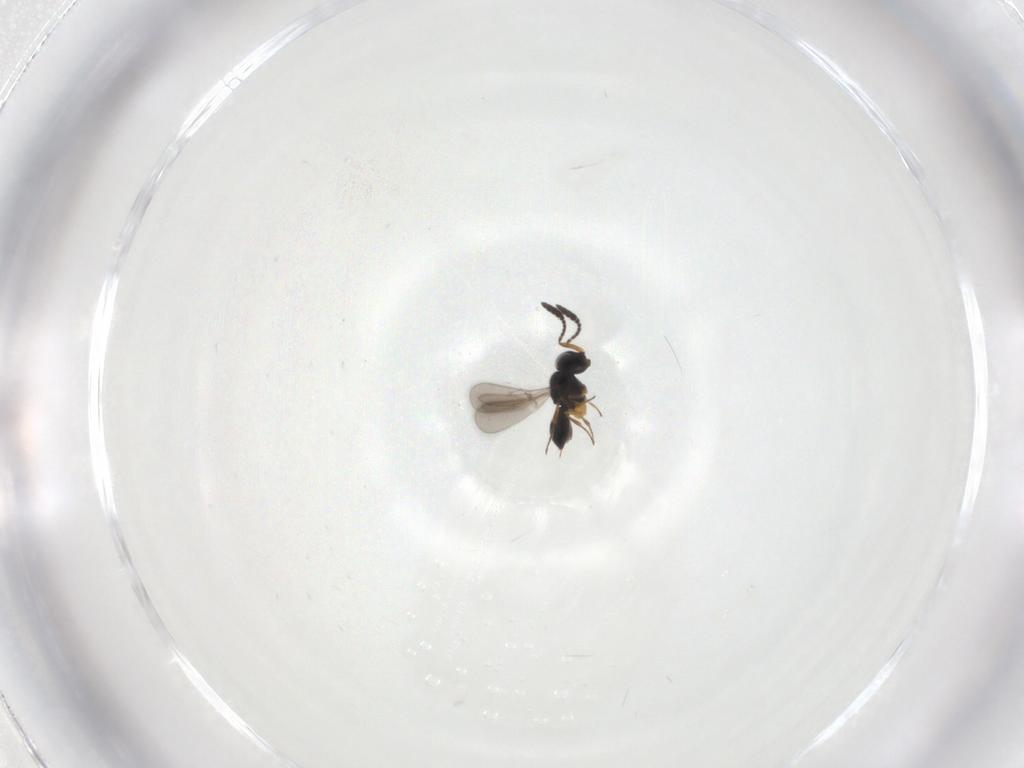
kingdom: Animalia
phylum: Arthropoda
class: Insecta
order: Hymenoptera
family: Scelionidae
